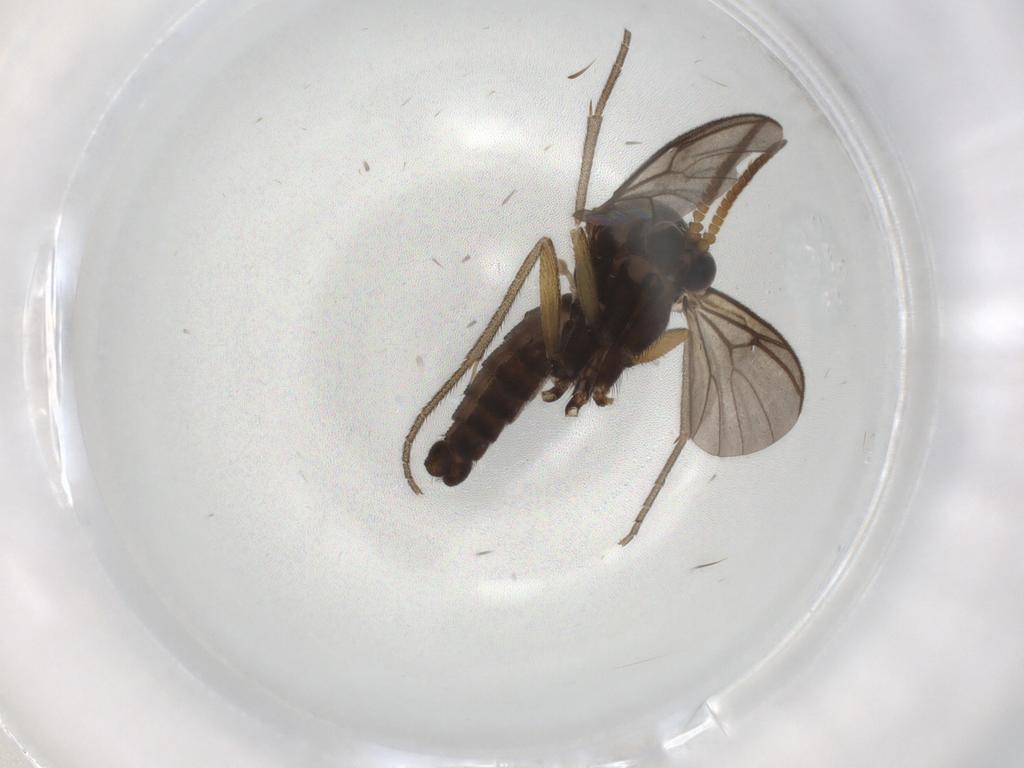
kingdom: Animalia
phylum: Arthropoda
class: Insecta
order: Diptera
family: Mycetophilidae
